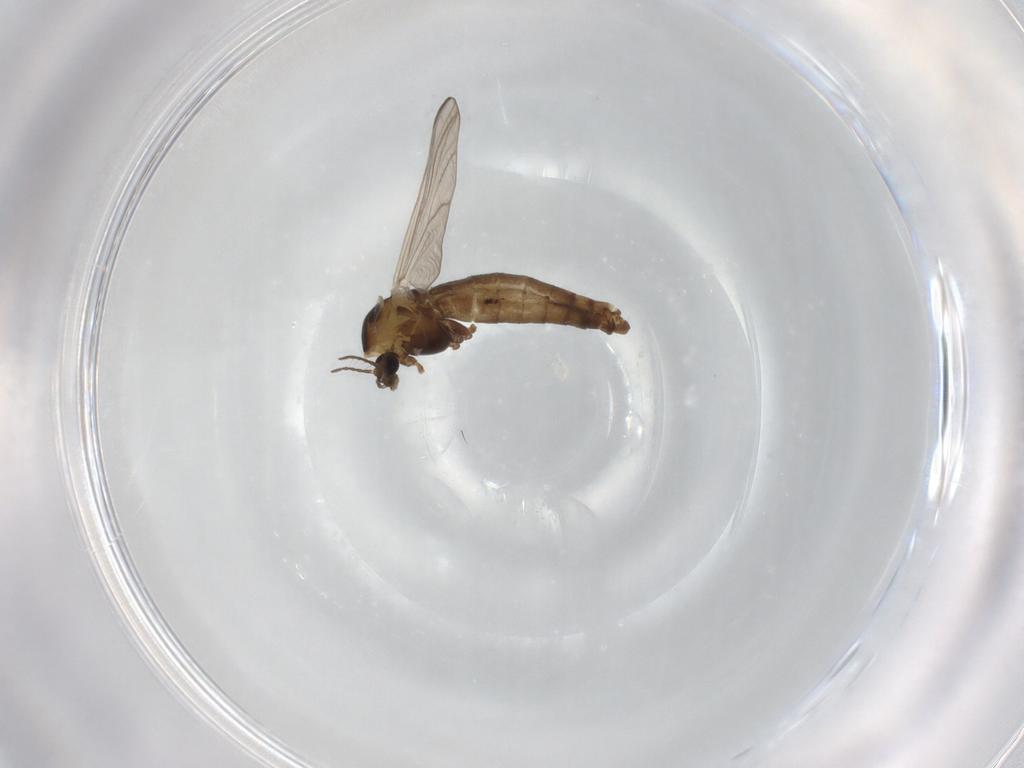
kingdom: Animalia
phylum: Arthropoda
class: Insecta
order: Diptera
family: Chironomidae
